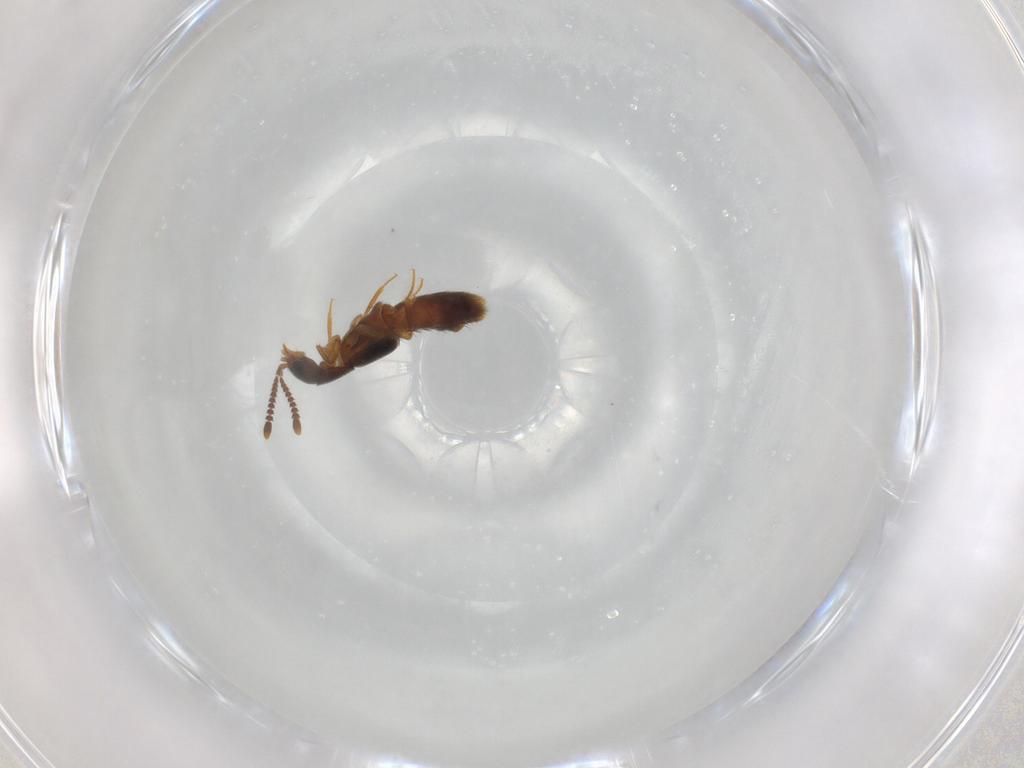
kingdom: Animalia
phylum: Arthropoda
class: Insecta
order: Coleoptera
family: Staphylinidae
